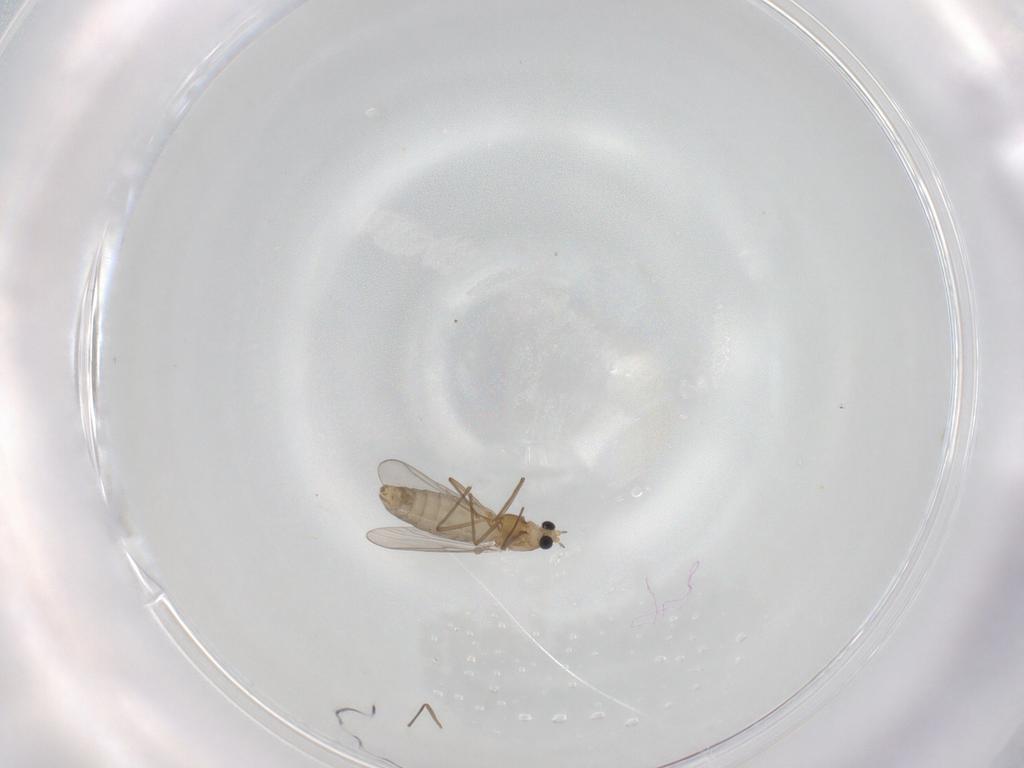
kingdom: Animalia
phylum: Arthropoda
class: Insecta
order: Diptera
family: Chironomidae
